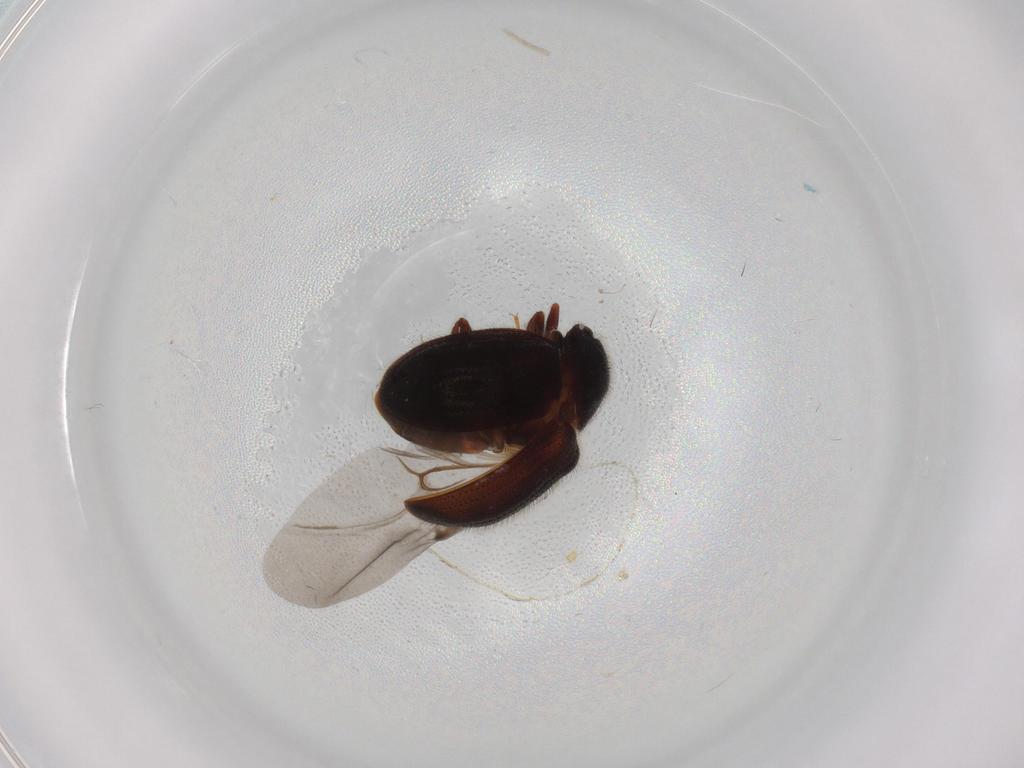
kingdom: Animalia
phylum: Arthropoda
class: Insecta
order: Coleoptera
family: Sphindidae
